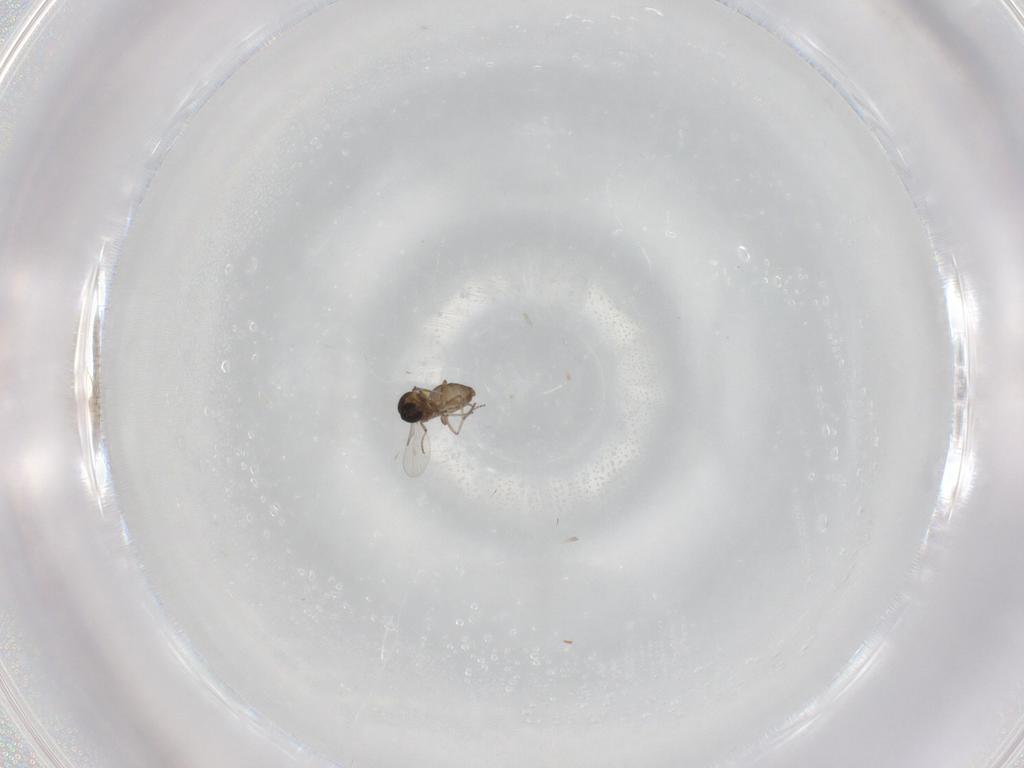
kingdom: Animalia
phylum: Arthropoda
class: Insecta
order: Diptera
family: Ceratopogonidae
